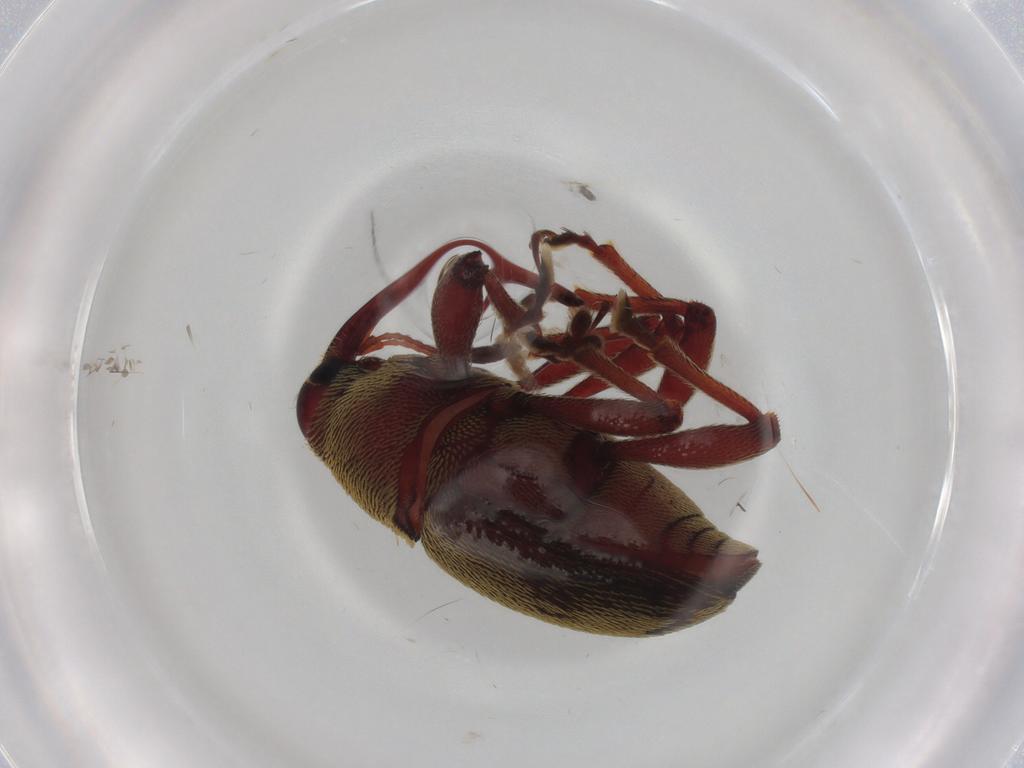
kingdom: Animalia
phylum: Arthropoda
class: Insecta
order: Coleoptera
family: Curculionidae
